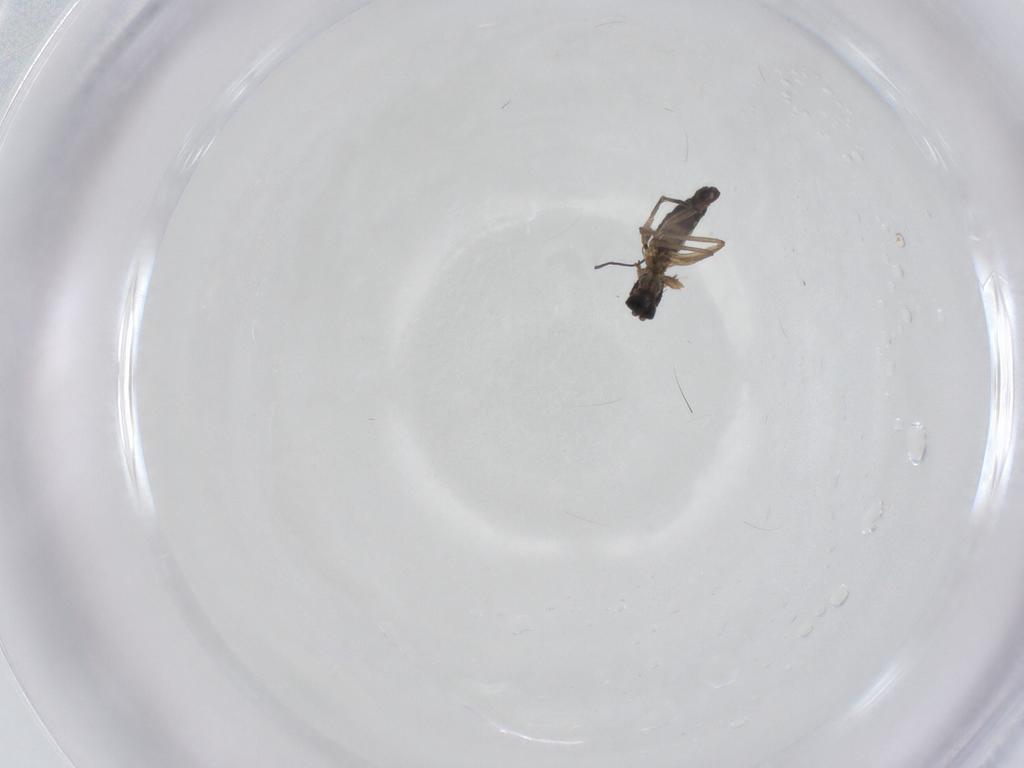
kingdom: Animalia
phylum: Arthropoda
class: Insecta
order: Diptera
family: Sciaridae
